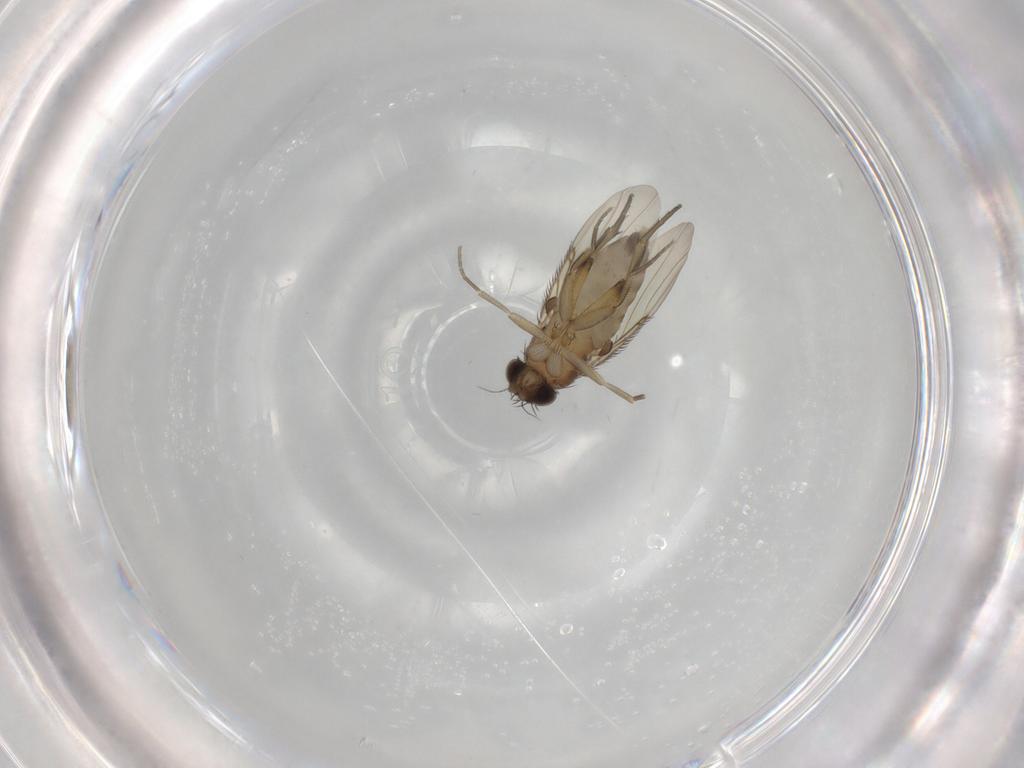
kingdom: Animalia
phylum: Arthropoda
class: Insecta
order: Diptera
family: Phoridae
